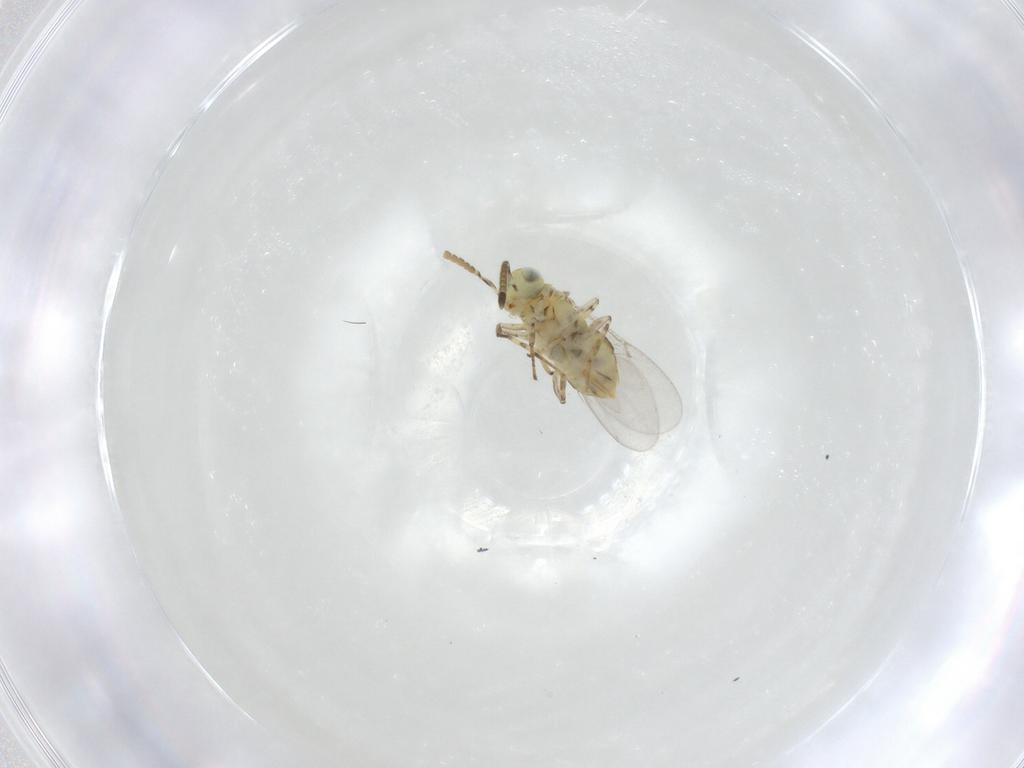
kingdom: Animalia
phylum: Arthropoda
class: Insecta
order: Hymenoptera
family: Encyrtidae
